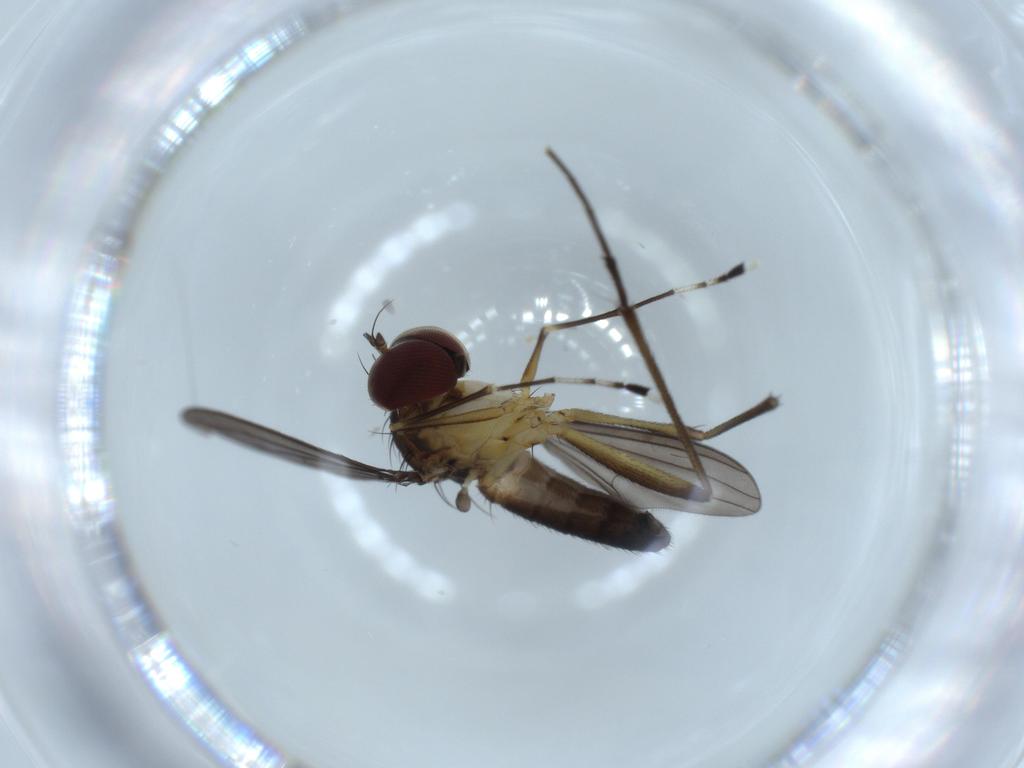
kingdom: Animalia
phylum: Arthropoda
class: Insecta
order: Diptera
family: Dolichopodidae
